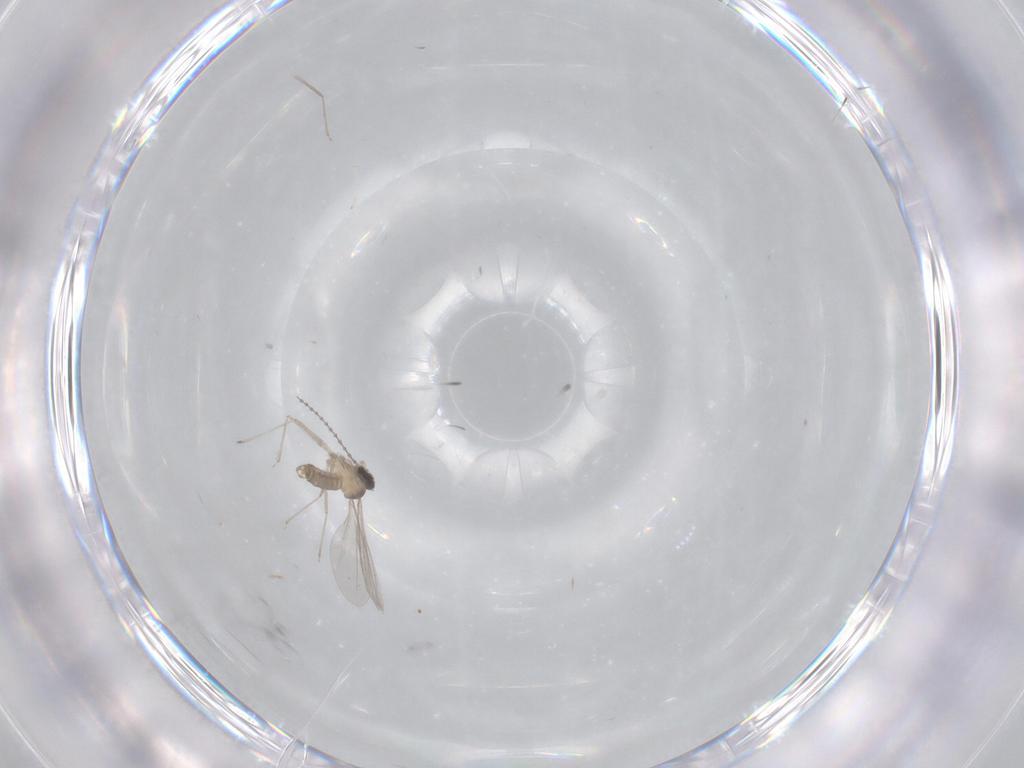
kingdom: Animalia
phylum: Arthropoda
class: Insecta
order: Diptera
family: Cecidomyiidae
